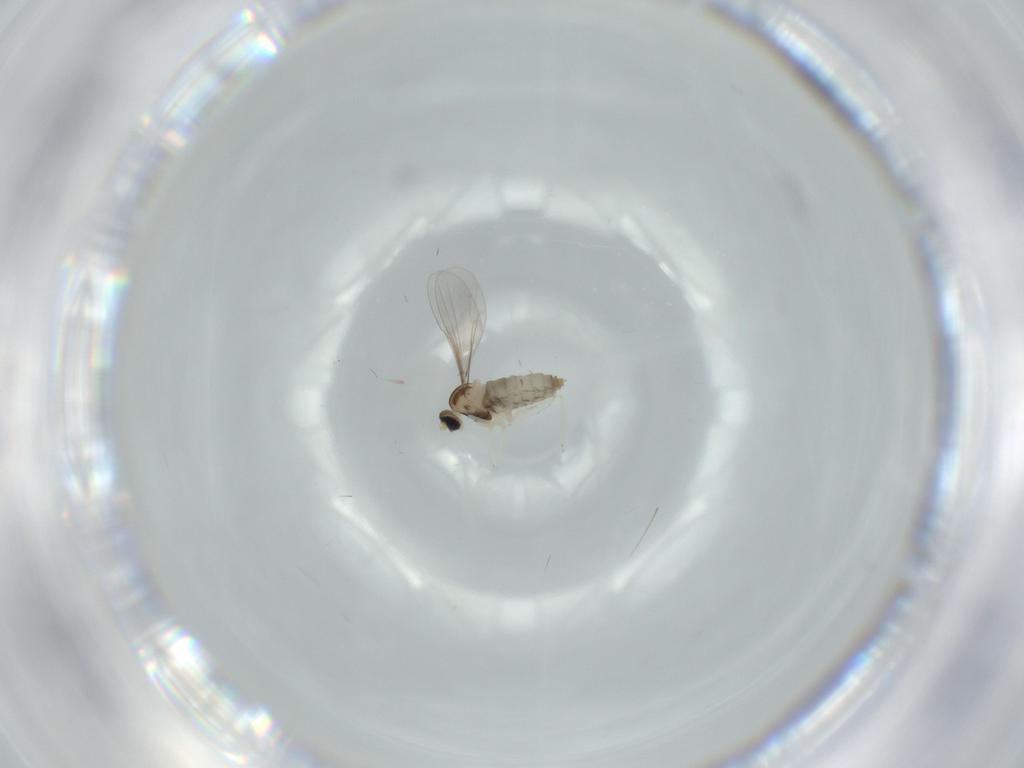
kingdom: Animalia
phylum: Arthropoda
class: Insecta
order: Diptera
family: Cecidomyiidae
